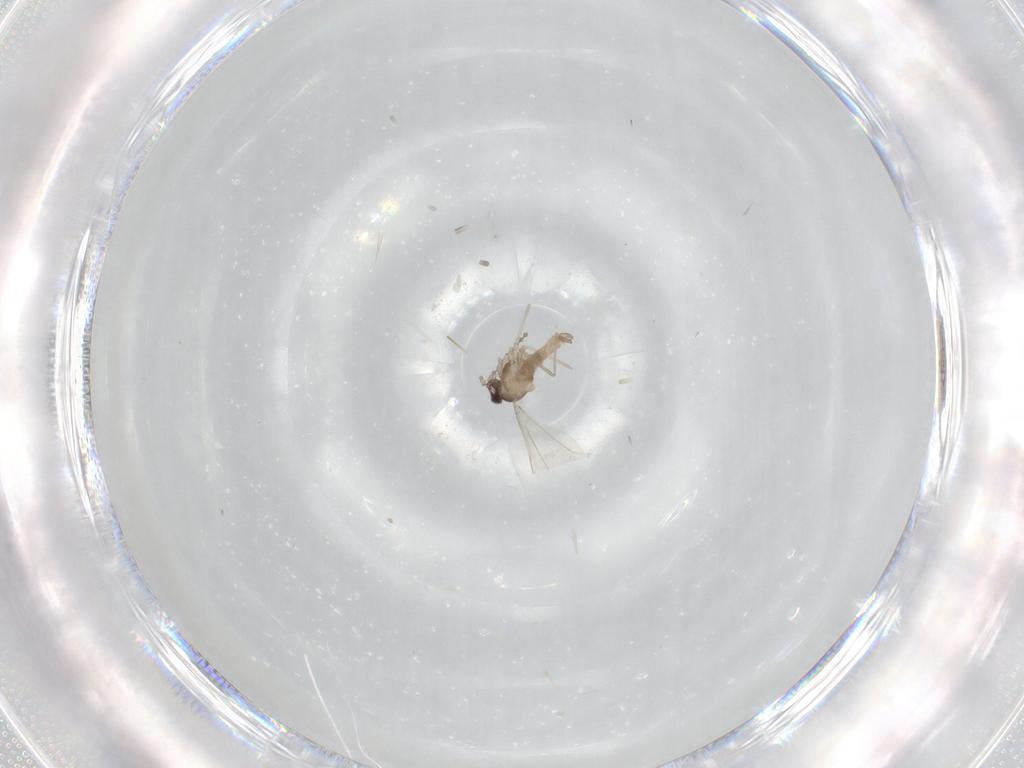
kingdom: Animalia
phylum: Arthropoda
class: Insecta
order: Diptera
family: Cecidomyiidae
